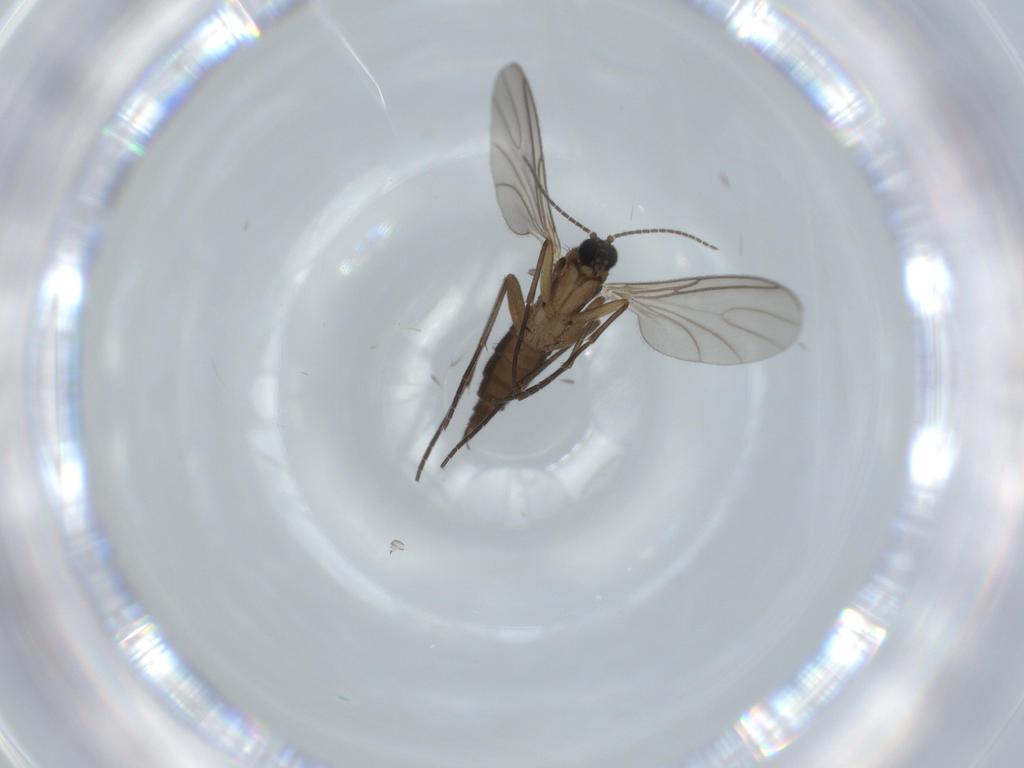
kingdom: Animalia
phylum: Arthropoda
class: Insecta
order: Diptera
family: Sciaridae
